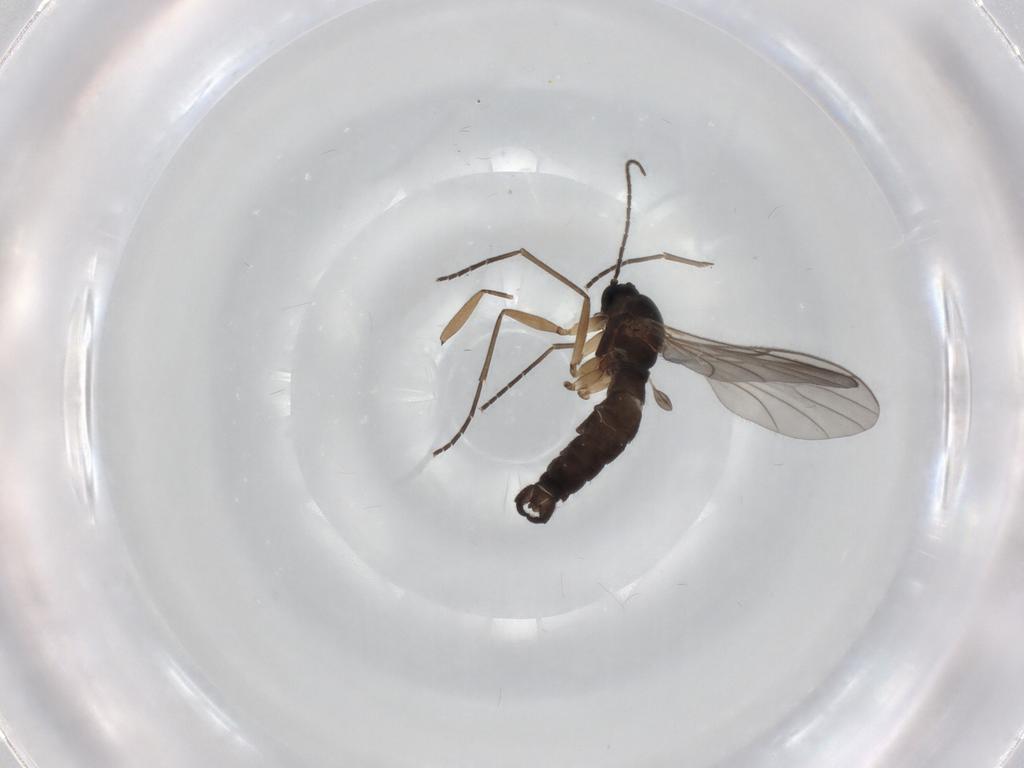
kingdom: Animalia
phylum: Arthropoda
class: Insecta
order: Diptera
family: Sciaridae
